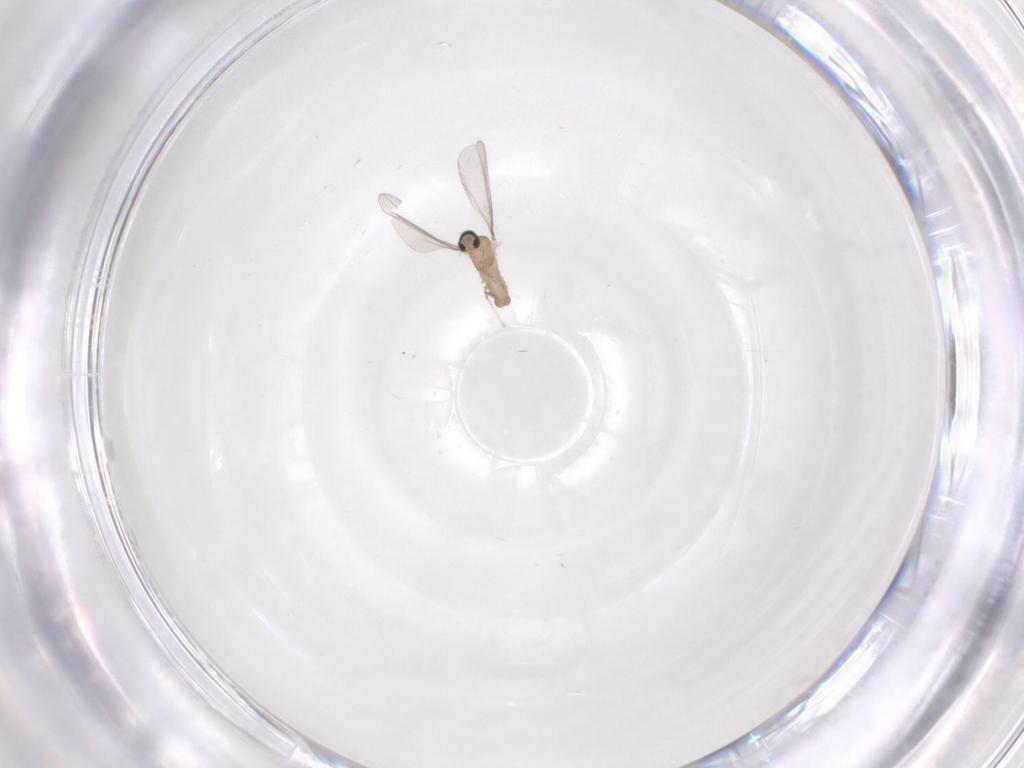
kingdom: Animalia
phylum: Arthropoda
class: Insecta
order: Diptera
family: Cecidomyiidae
